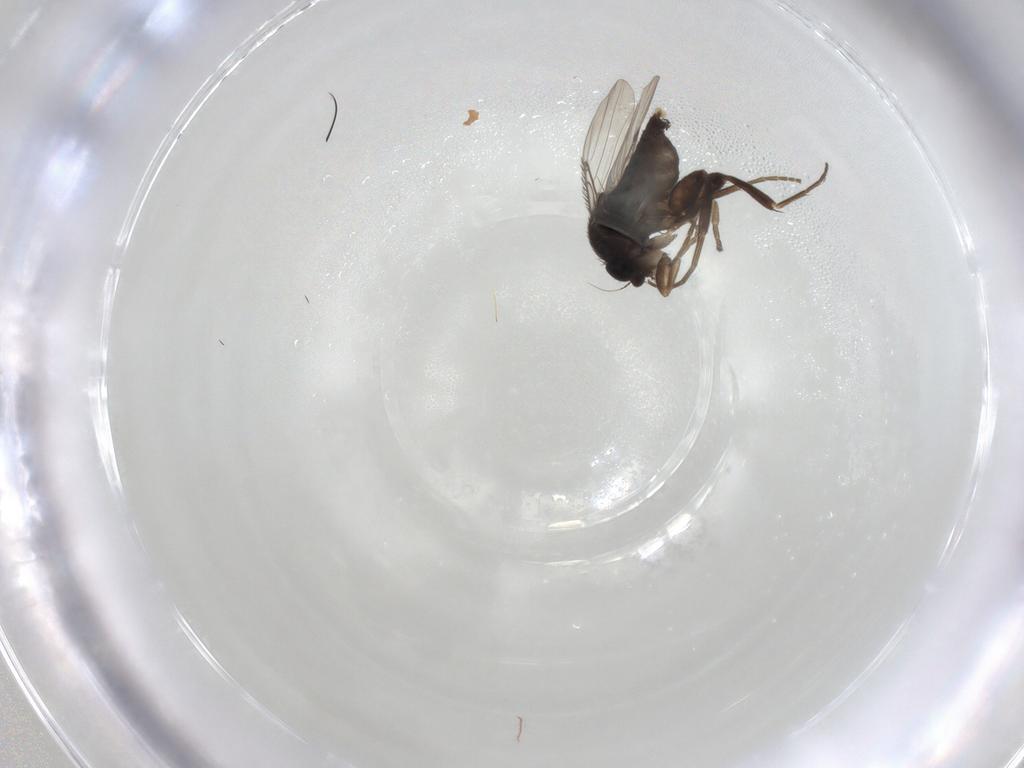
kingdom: Animalia
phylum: Arthropoda
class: Insecta
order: Diptera
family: Phoridae
